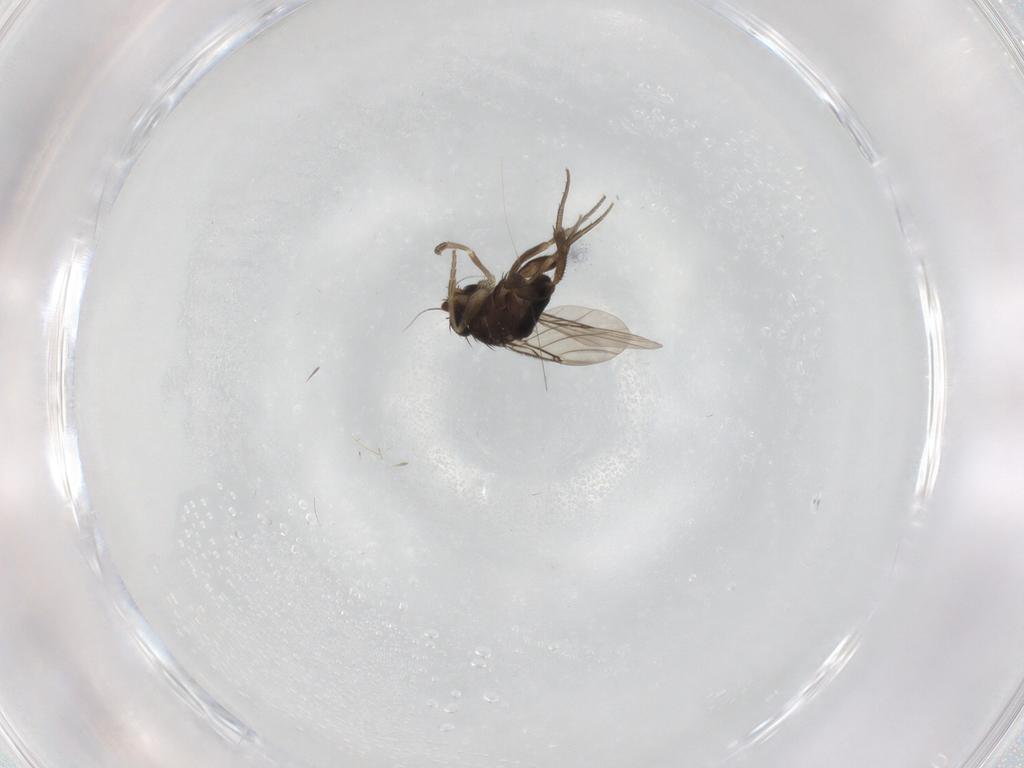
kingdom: Animalia
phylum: Arthropoda
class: Insecta
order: Diptera
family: Phoridae
